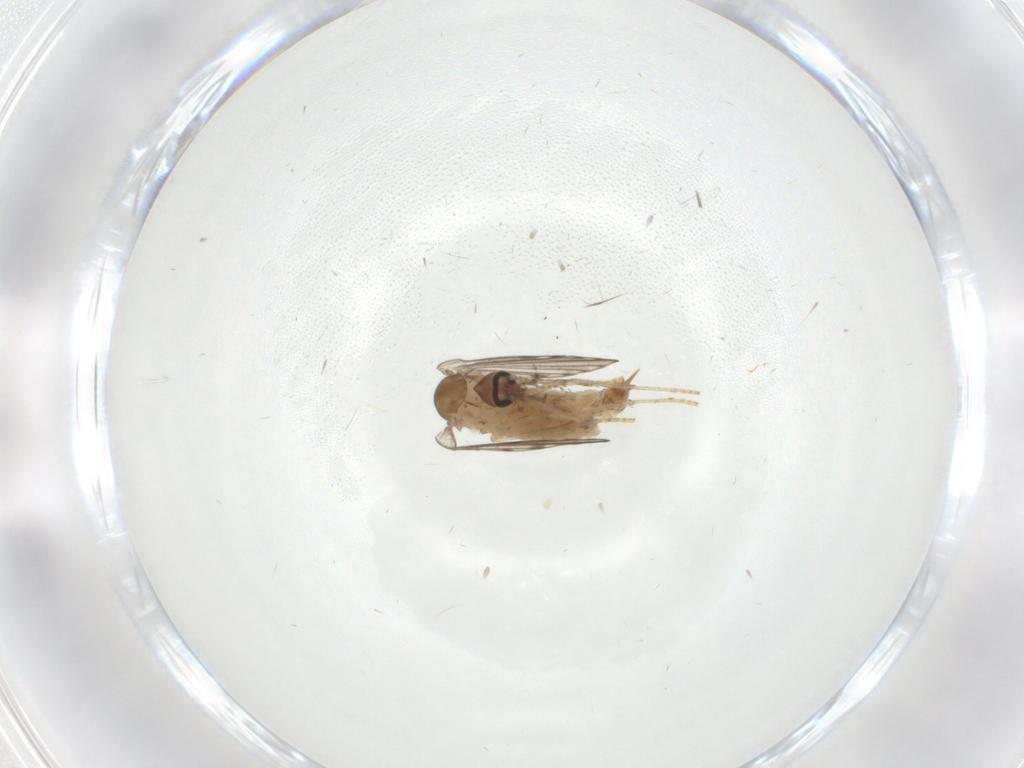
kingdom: Animalia
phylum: Arthropoda
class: Insecta
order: Diptera
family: Psychodidae
